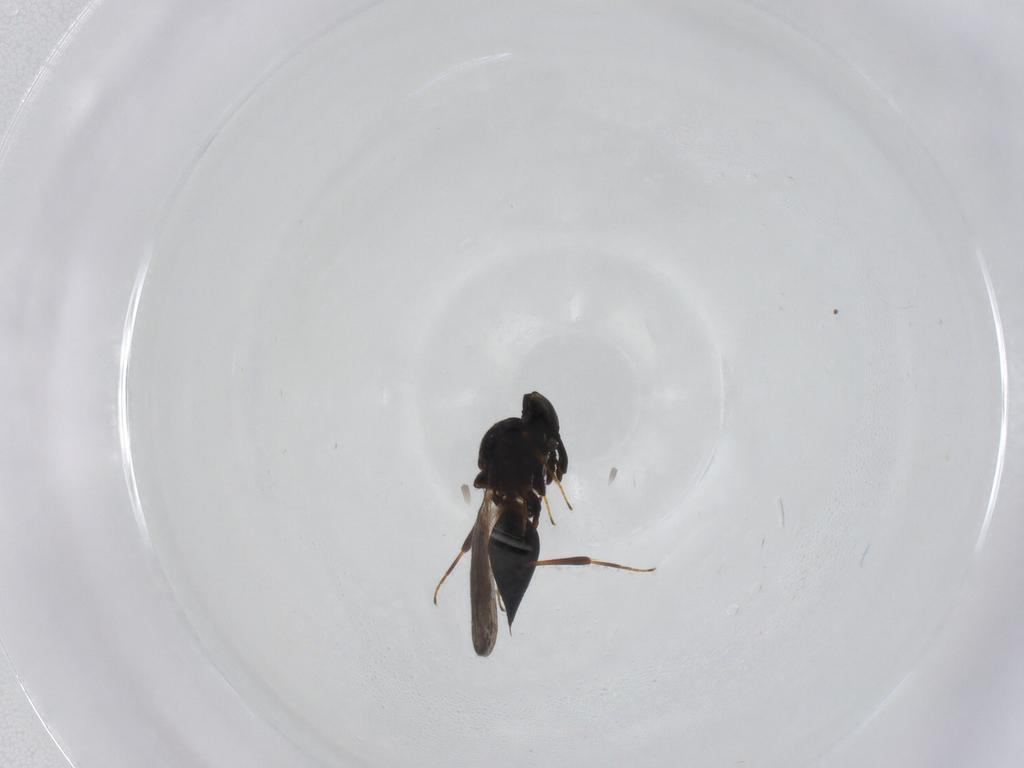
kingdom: Animalia
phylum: Arthropoda
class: Insecta
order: Hymenoptera
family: Platygastridae
